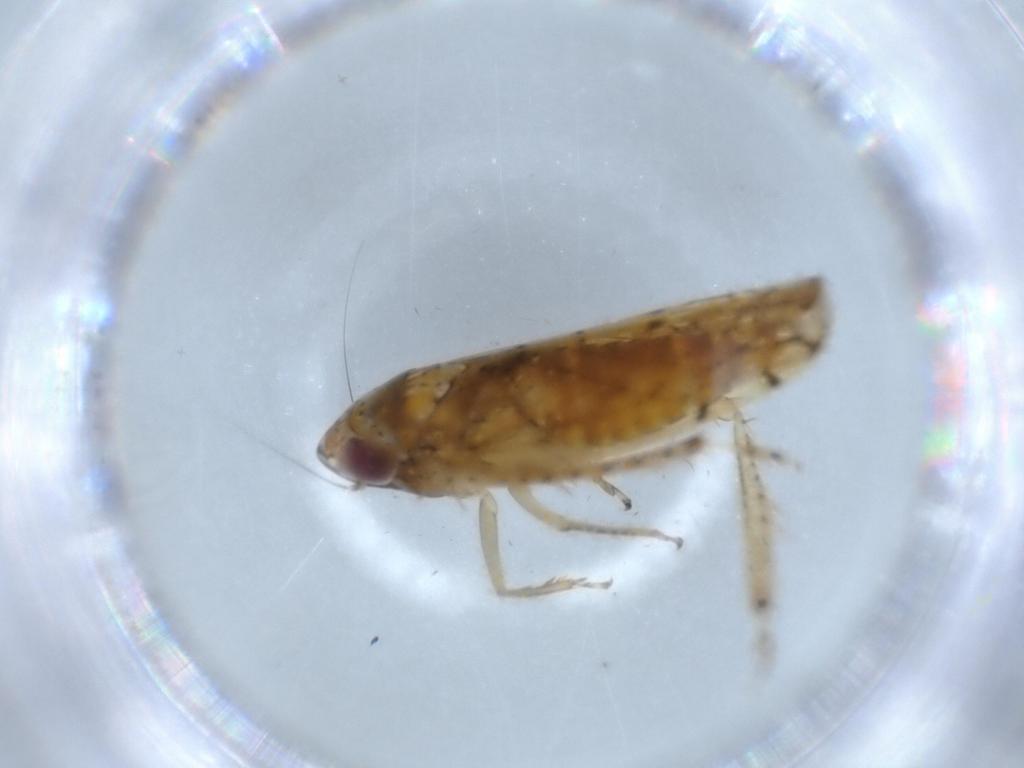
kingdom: Animalia
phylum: Arthropoda
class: Insecta
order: Hemiptera
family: Cicadellidae
